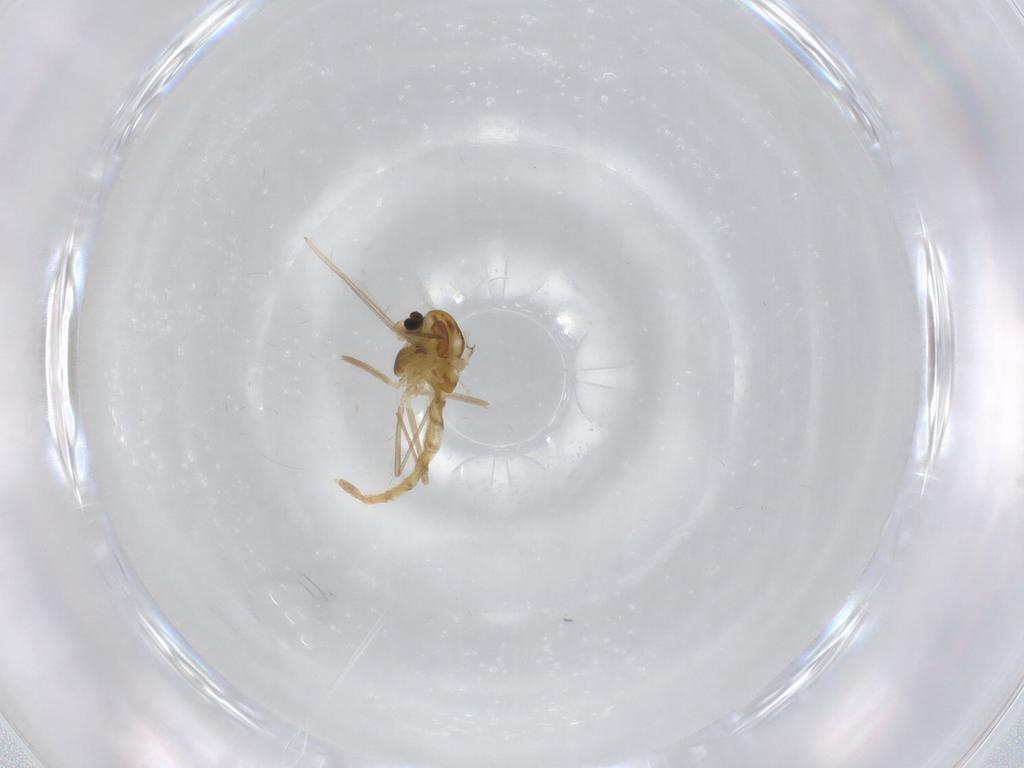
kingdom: Animalia
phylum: Arthropoda
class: Insecta
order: Diptera
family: Chironomidae
